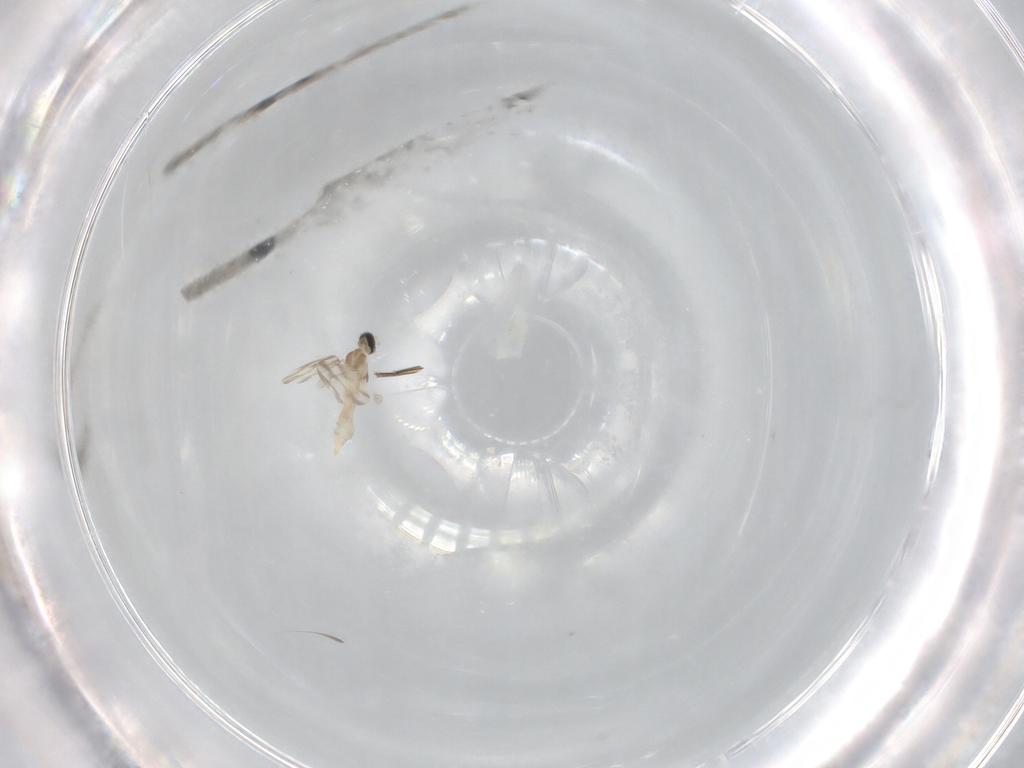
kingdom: Animalia
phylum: Arthropoda
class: Insecta
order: Diptera
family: Cecidomyiidae
